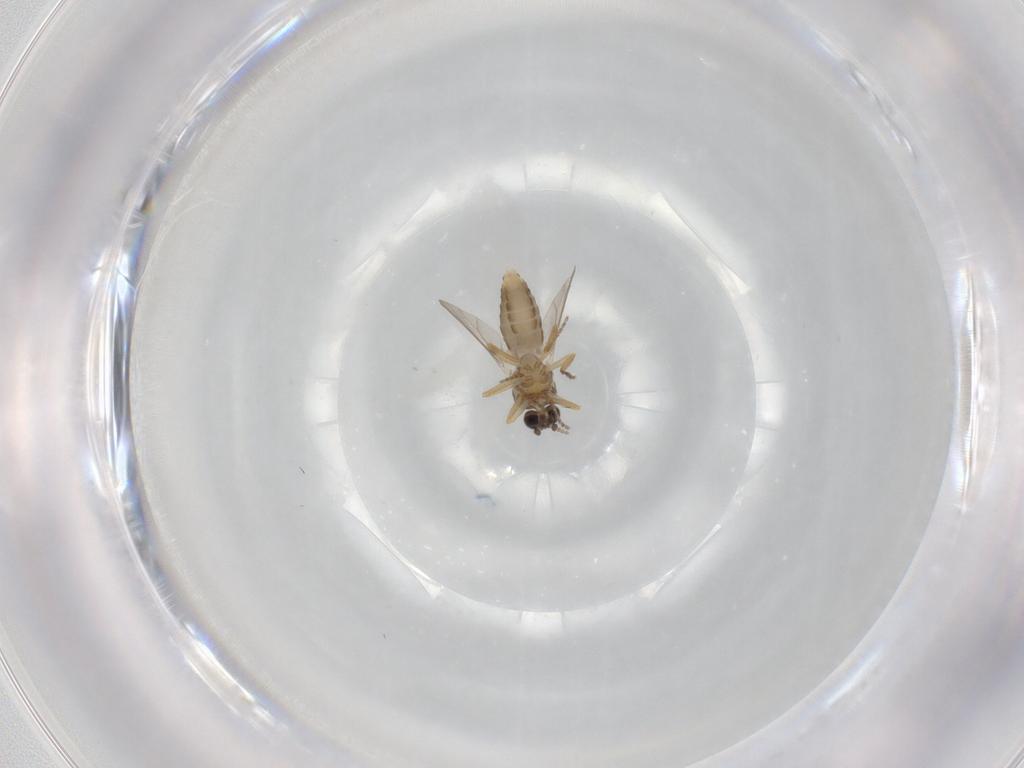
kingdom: Animalia
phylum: Arthropoda
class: Insecta
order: Diptera
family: Ceratopogonidae
